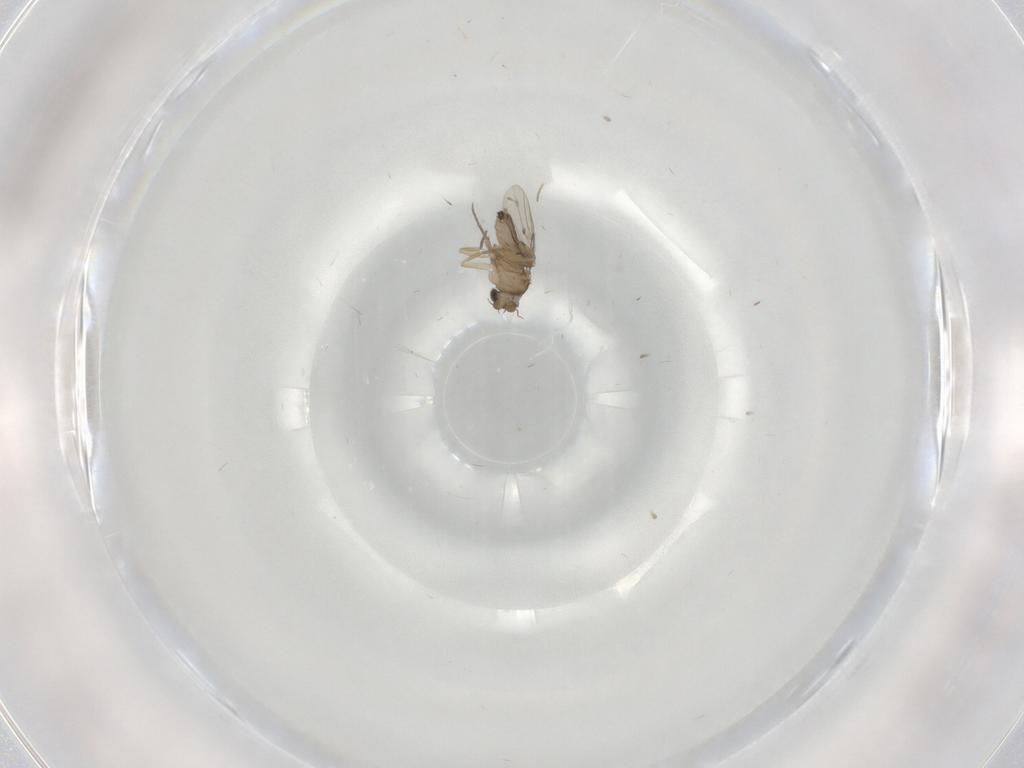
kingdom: Animalia
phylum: Arthropoda
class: Insecta
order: Diptera
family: Phoridae
